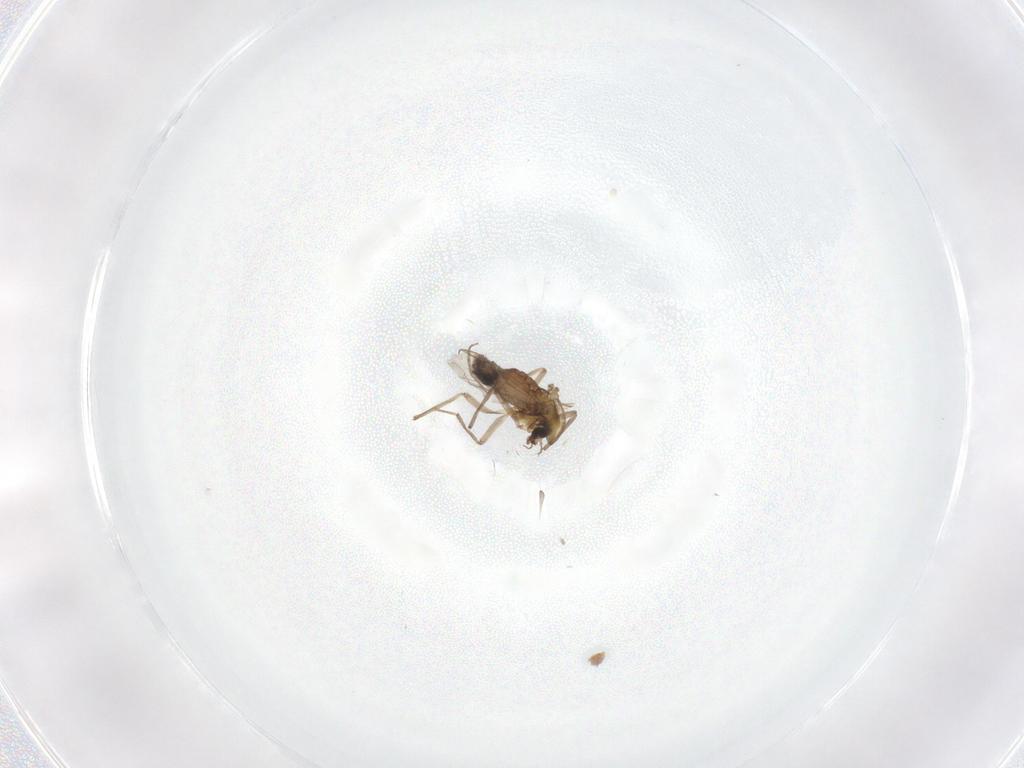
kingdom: Animalia
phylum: Arthropoda
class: Insecta
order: Diptera
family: Chironomidae
